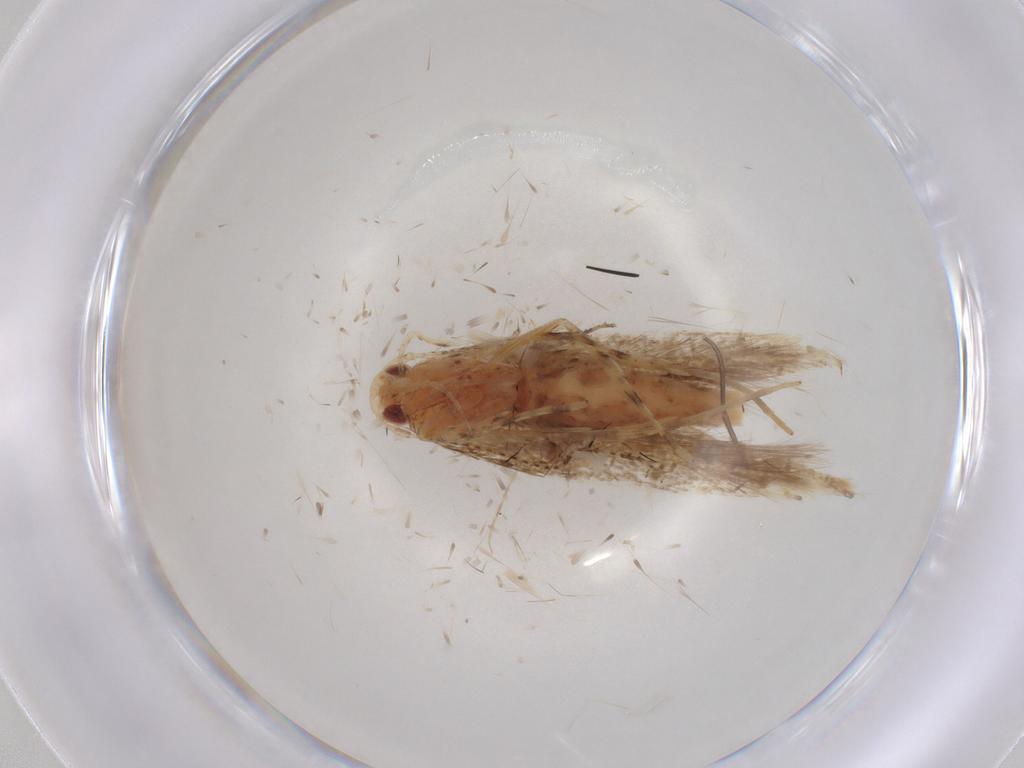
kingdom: Animalia
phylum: Arthropoda
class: Insecta
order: Lepidoptera
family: Cosmopterigidae
